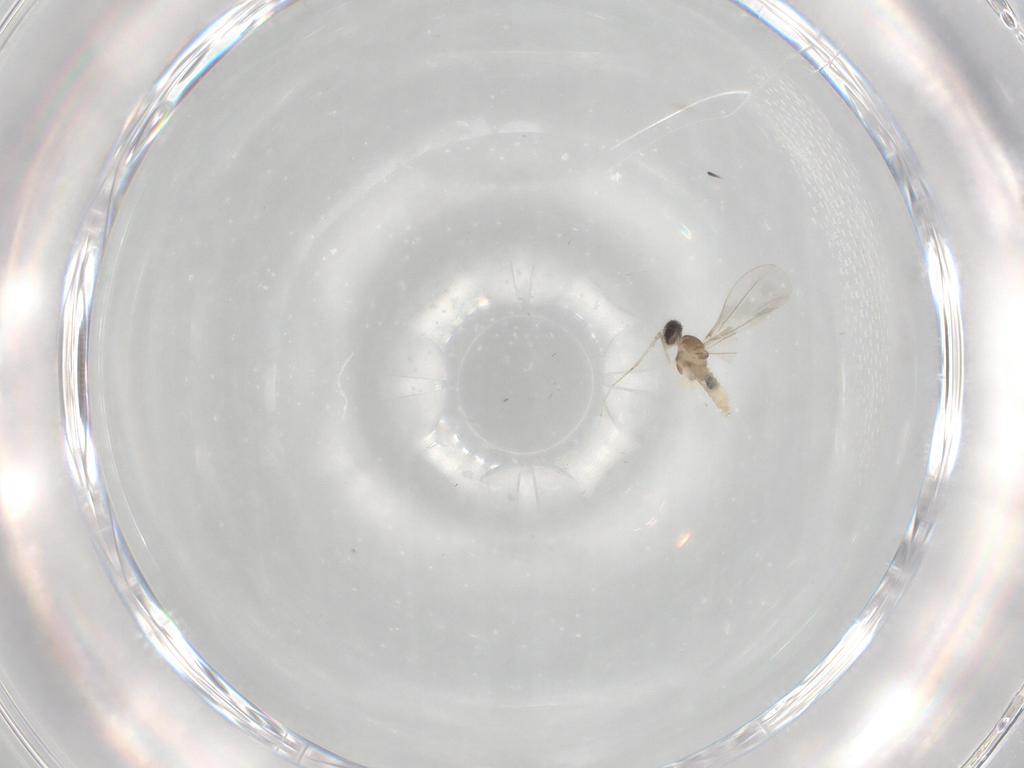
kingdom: Animalia
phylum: Arthropoda
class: Insecta
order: Diptera
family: Cecidomyiidae
